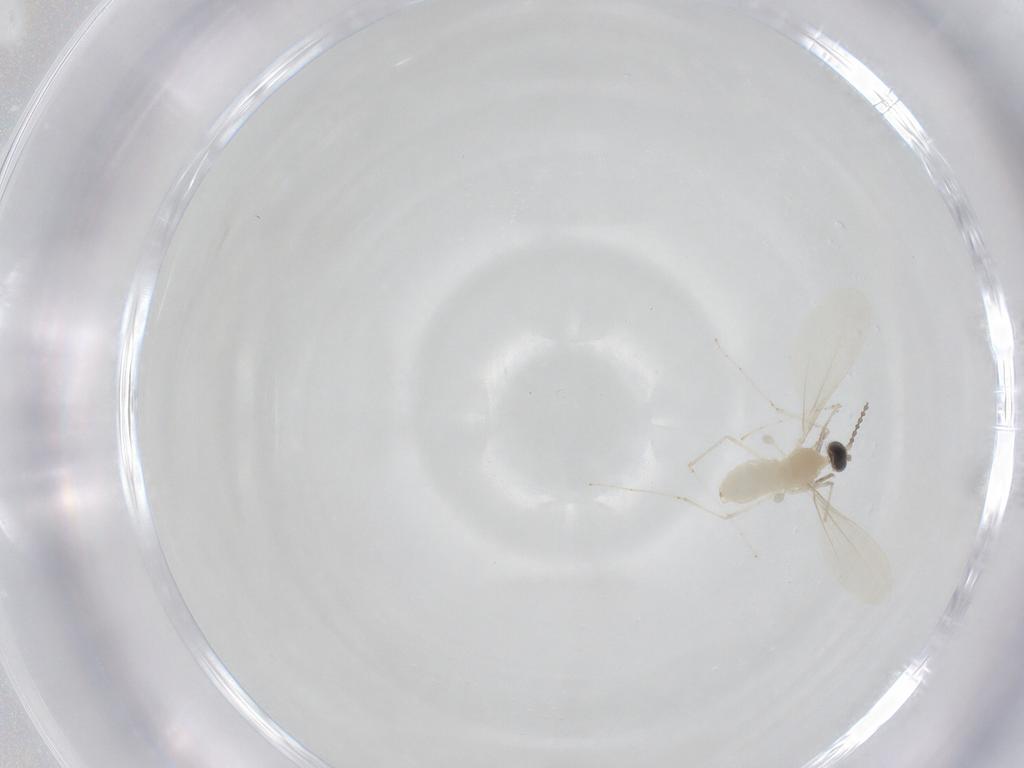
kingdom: Animalia
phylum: Arthropoda
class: Insecta
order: Diptera
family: Cecidomyiidae
